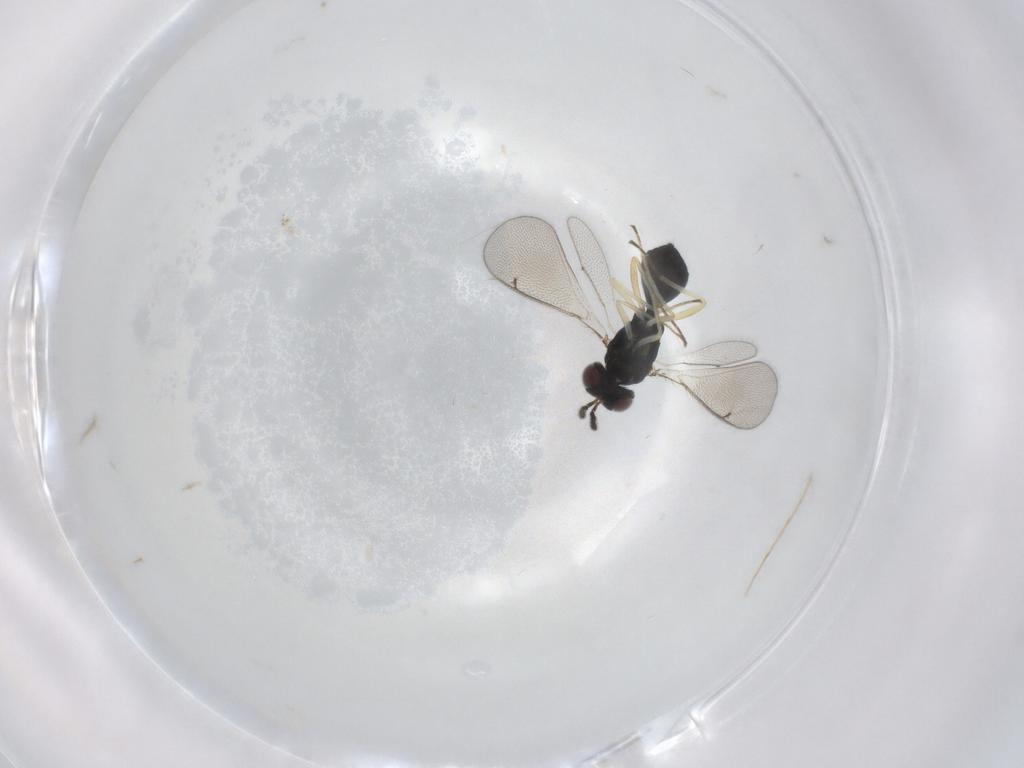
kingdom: Animalia
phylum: Arthropoda
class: Insecta
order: Hymenoptera
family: Eulophidae
